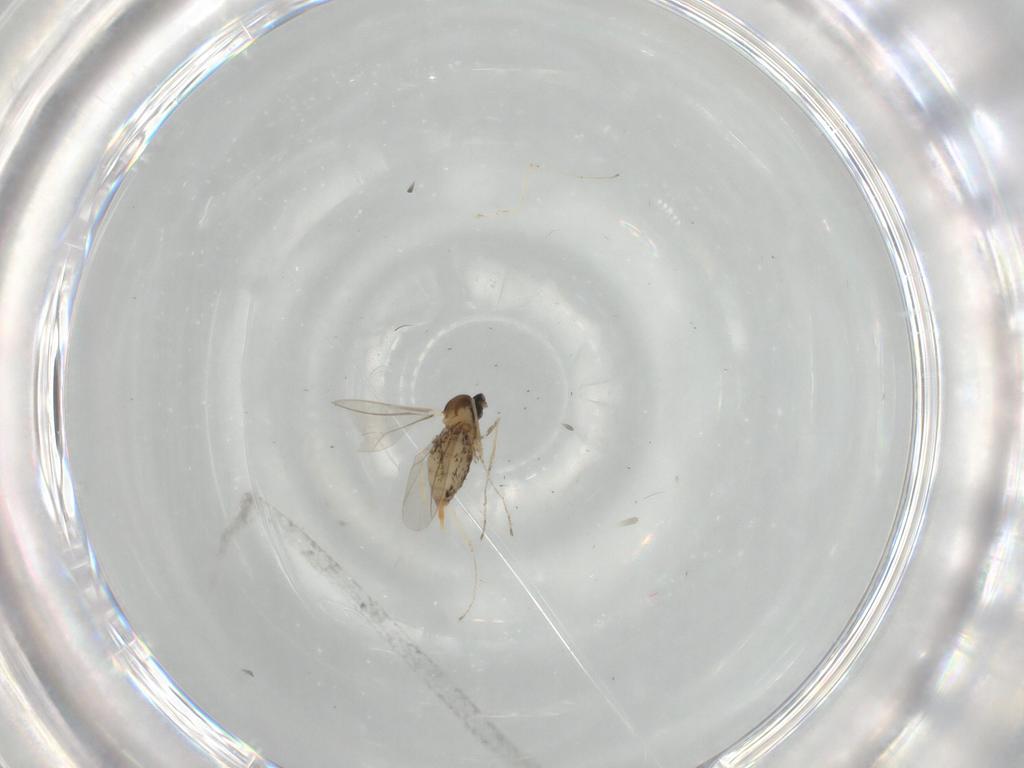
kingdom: Animalia
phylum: Arthropoda
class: Insecta
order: Diptera
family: Cecidomyiidae
